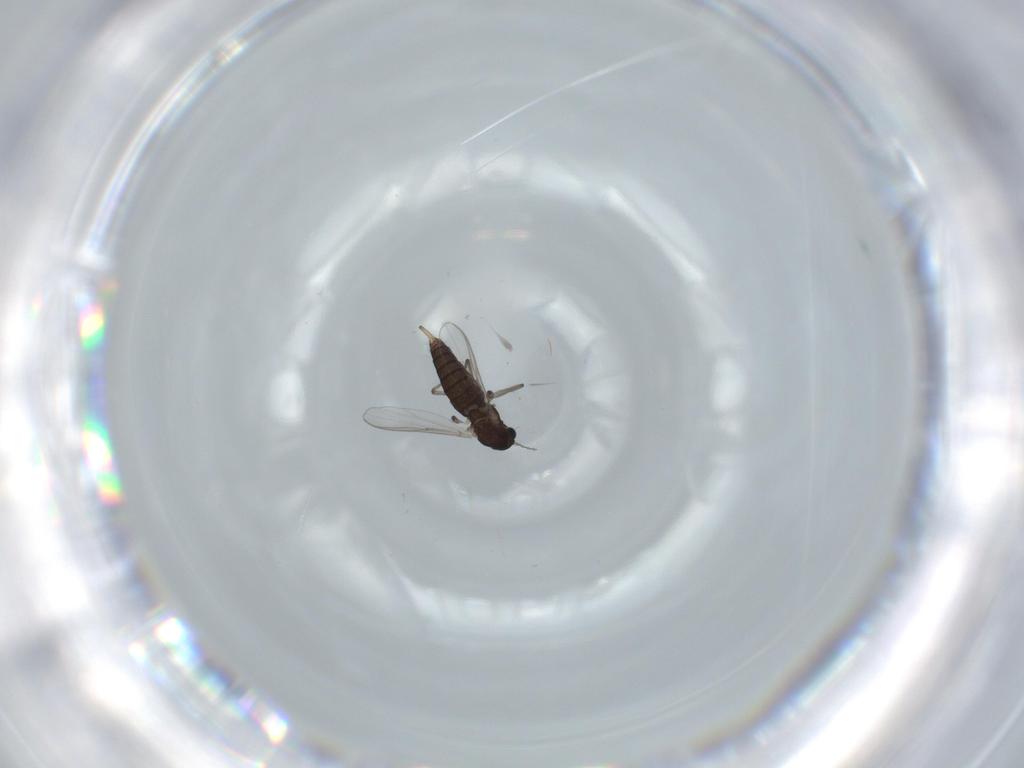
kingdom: Animalia
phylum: Arthropoda
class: Insecta
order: Diptera
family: Chironomidae
